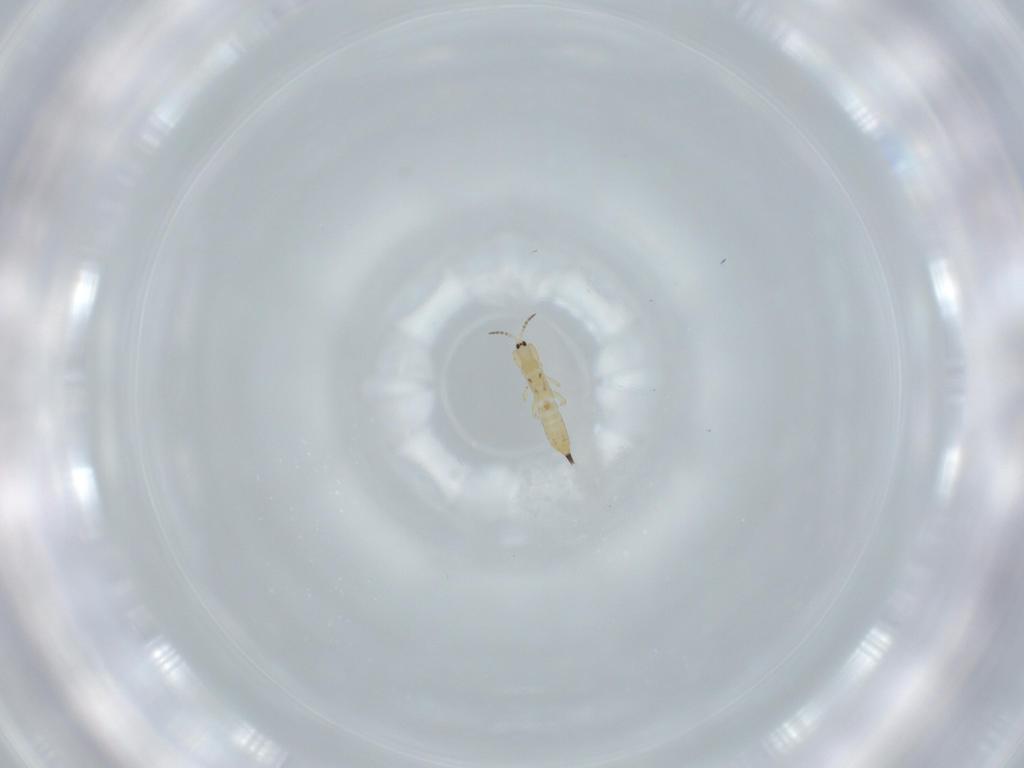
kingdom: Animalia
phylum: Arthropoda
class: Insecta
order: Thysanoptera
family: Phlaeothripidae
